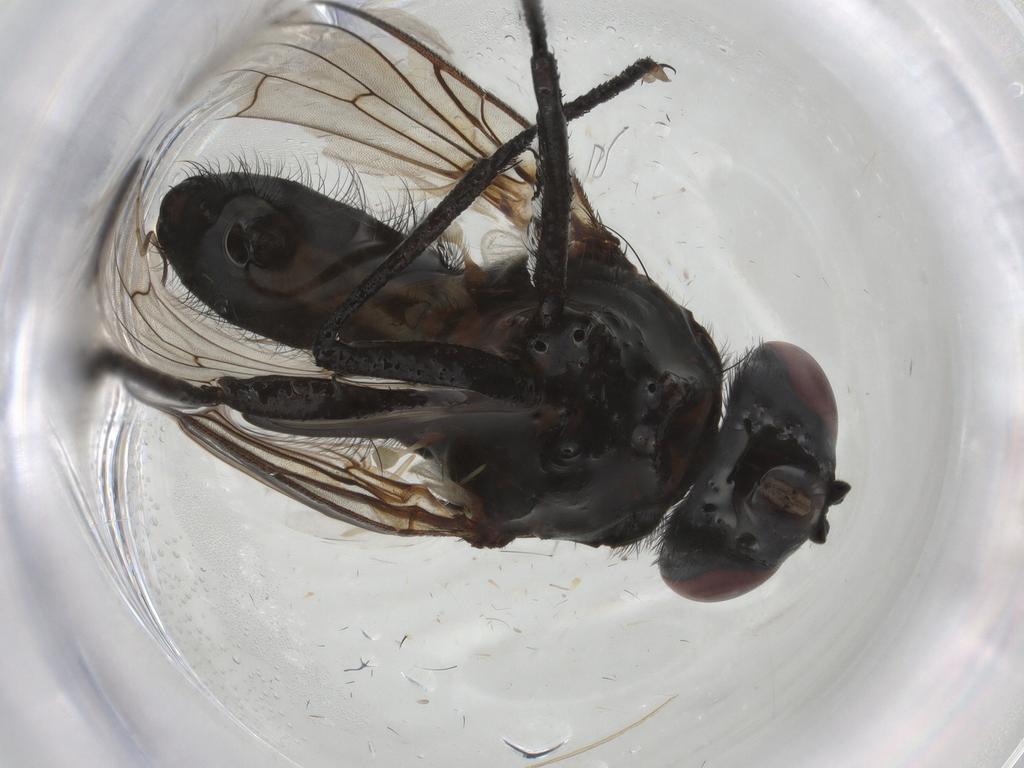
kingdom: Animalia
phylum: Arthropoda
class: Insecta
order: Diptera
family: Anthomyiidae
